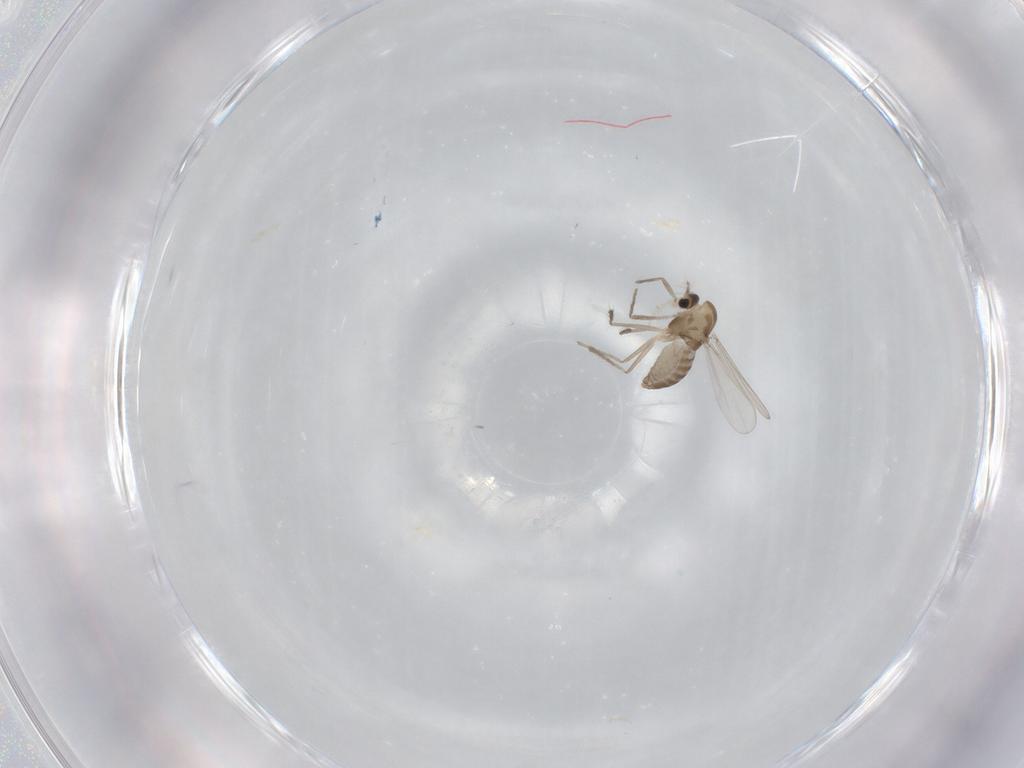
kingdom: Animalia
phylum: Arthropoda
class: Insecta
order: Diptera
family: Chironomidae
